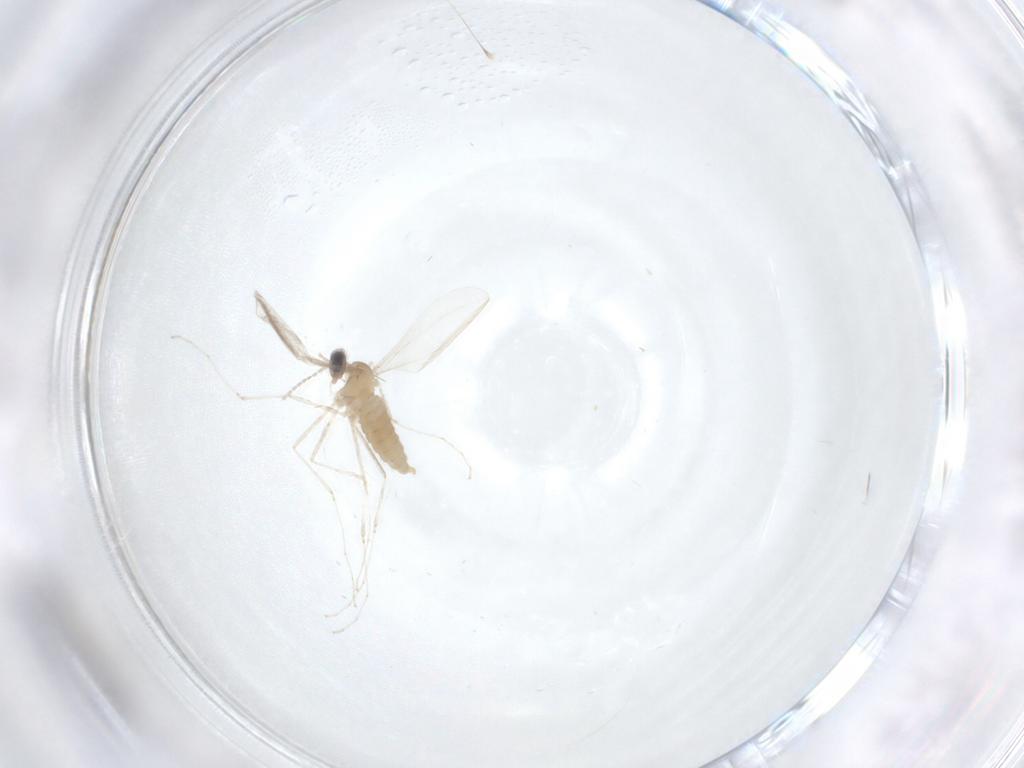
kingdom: Animalia
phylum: Arthropoda
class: Insecta
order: Diptera
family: Cecidomyiidae
